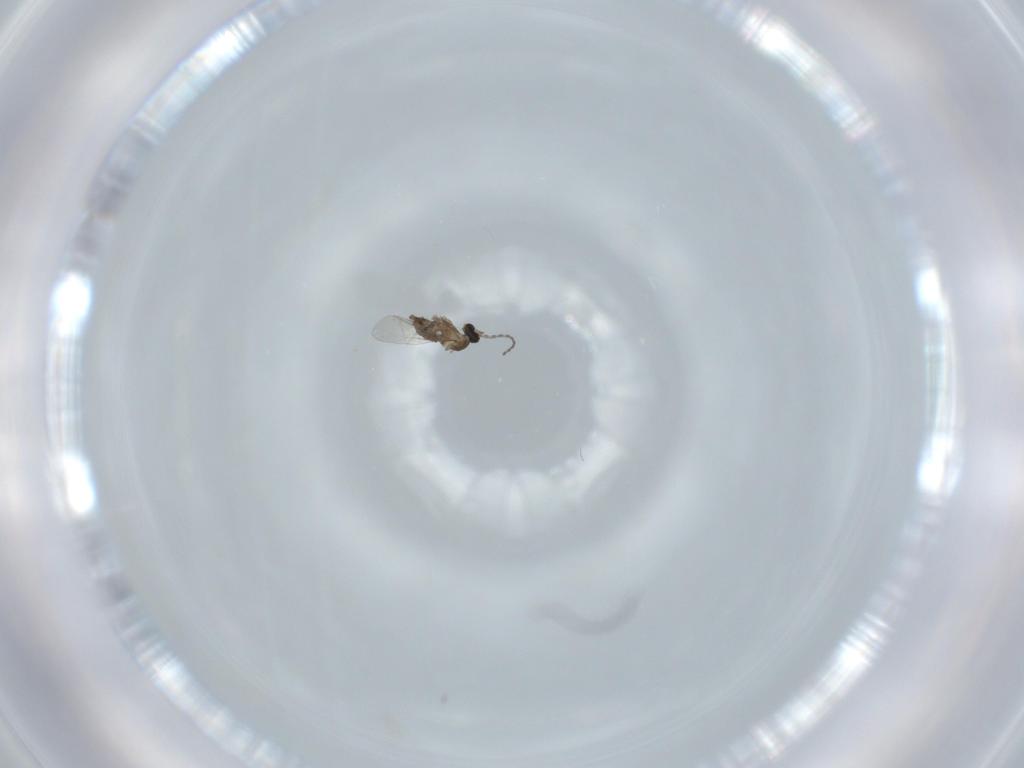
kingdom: Animalia
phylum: Arthropoda
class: Insecta
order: Diptera
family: Cecidomyiidae
